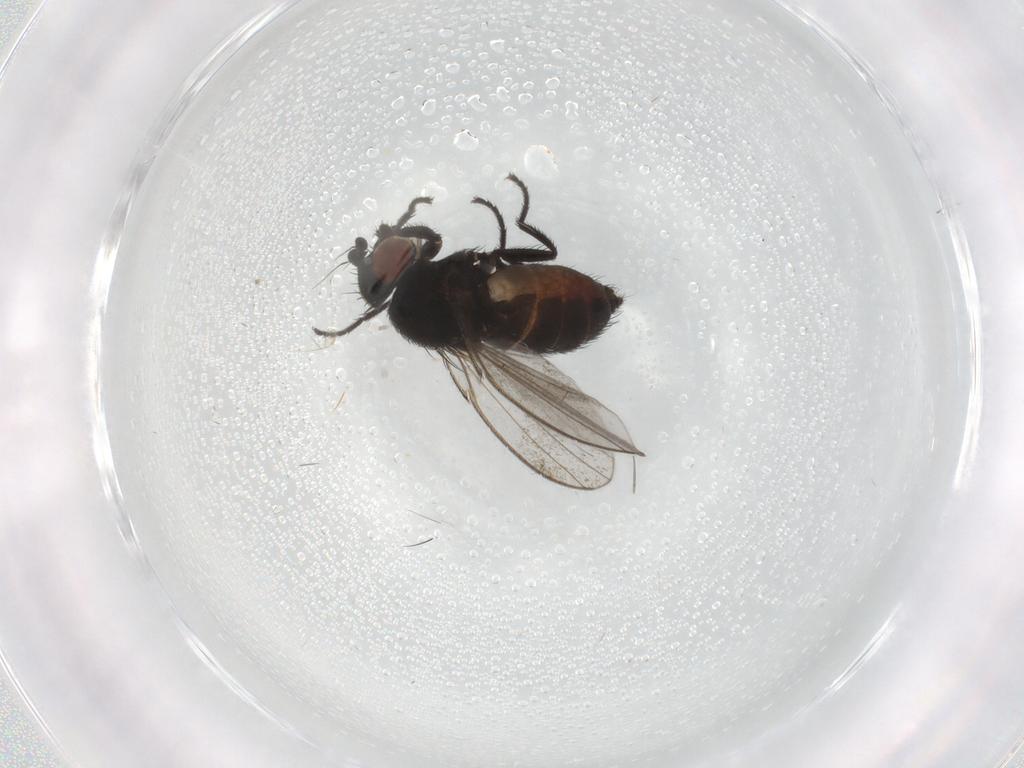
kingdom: Animalia
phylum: Arthropoda
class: Insecta
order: Diptera
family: Milichiidae
